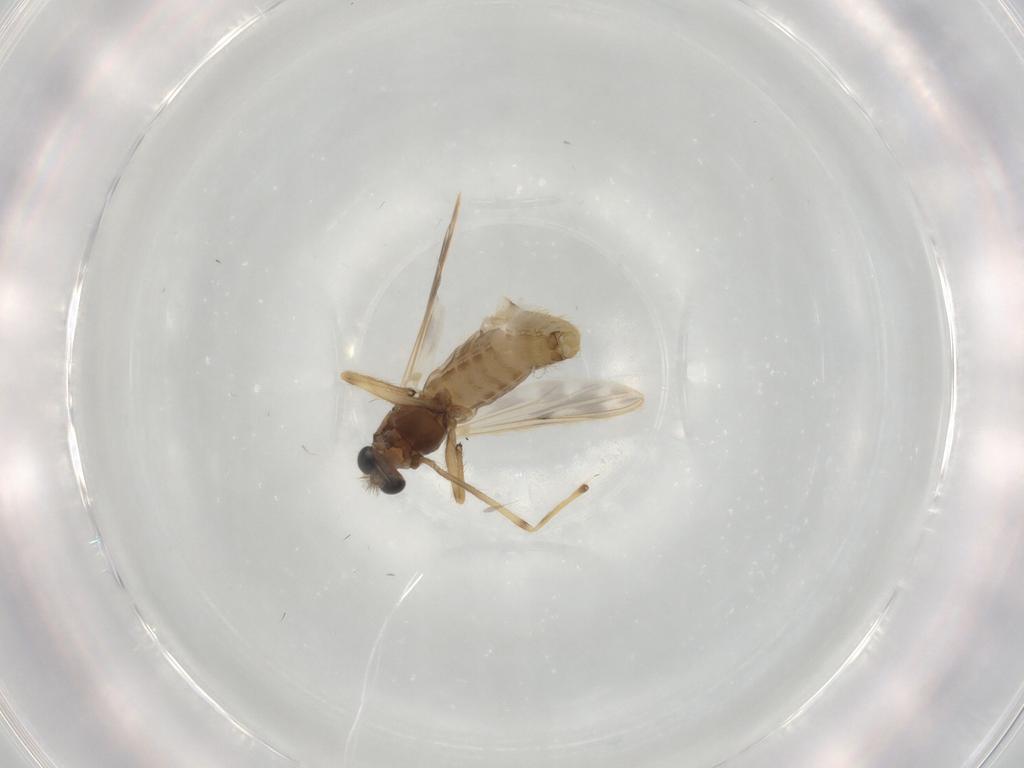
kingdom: Animalia
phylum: Arthropoda
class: Insecta
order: Diptera
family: Chironomidae
